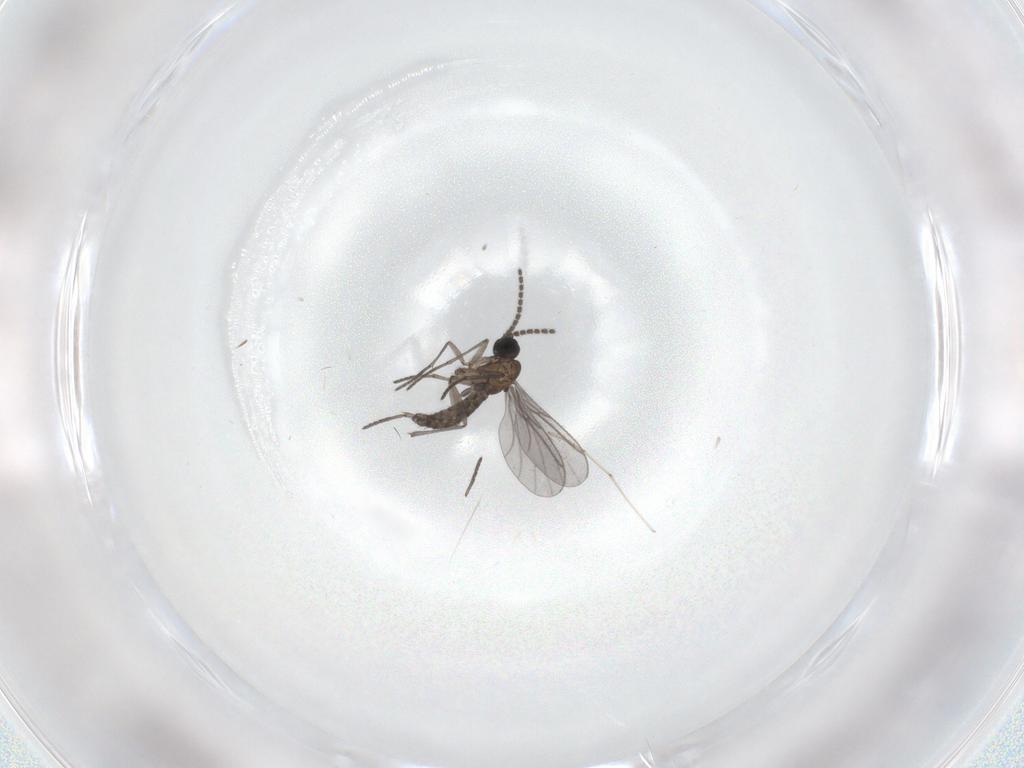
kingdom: Animalia
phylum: Arthropoda
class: Insecta
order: Diptera
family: Cecidomyiidae
